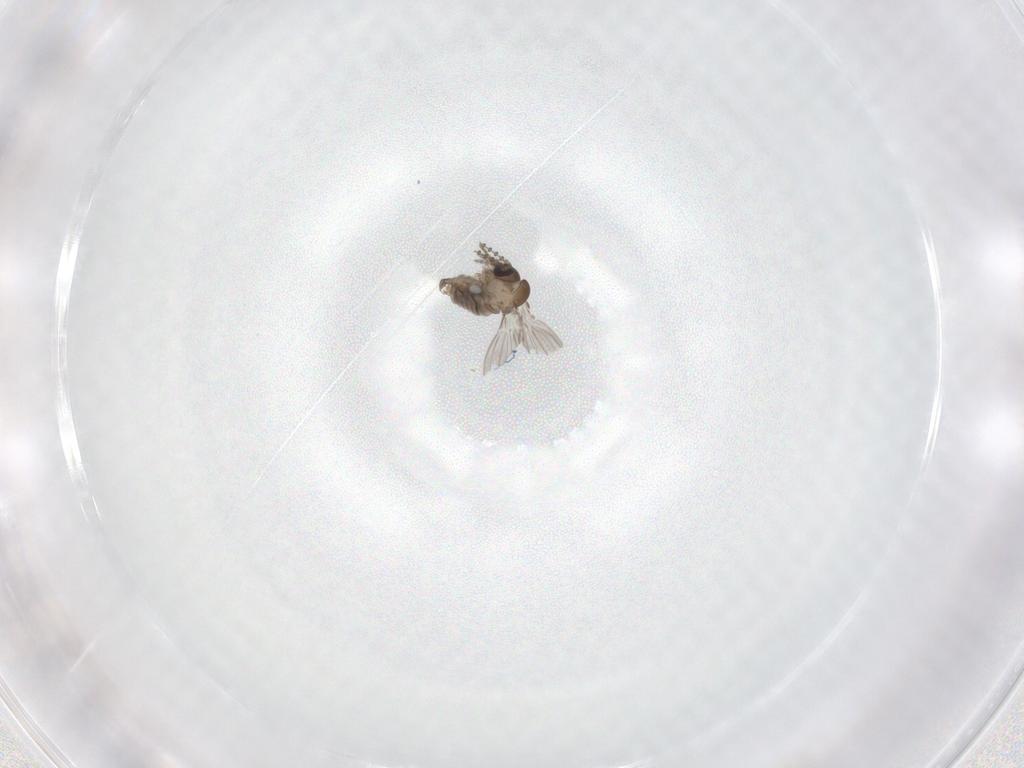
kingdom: Animalia
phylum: Arthropoda
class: Insecta
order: Diptera
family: Psychodidae
